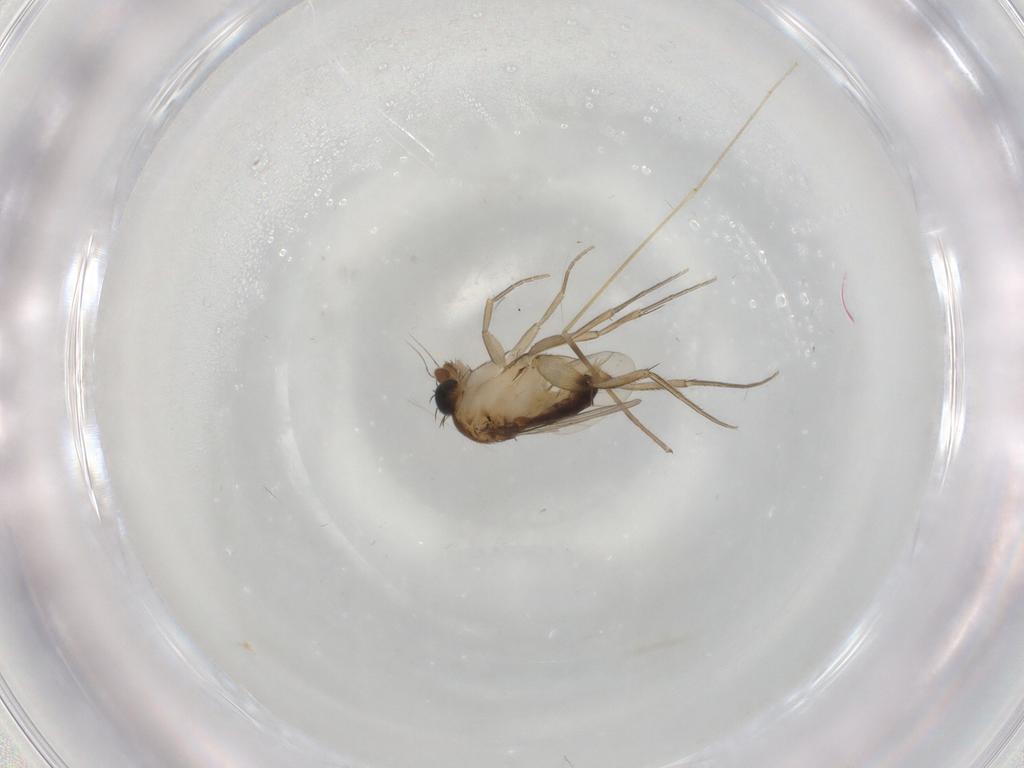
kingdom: Animalia
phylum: Arthropoda
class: Insecta
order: Diptera
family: Phoridae
